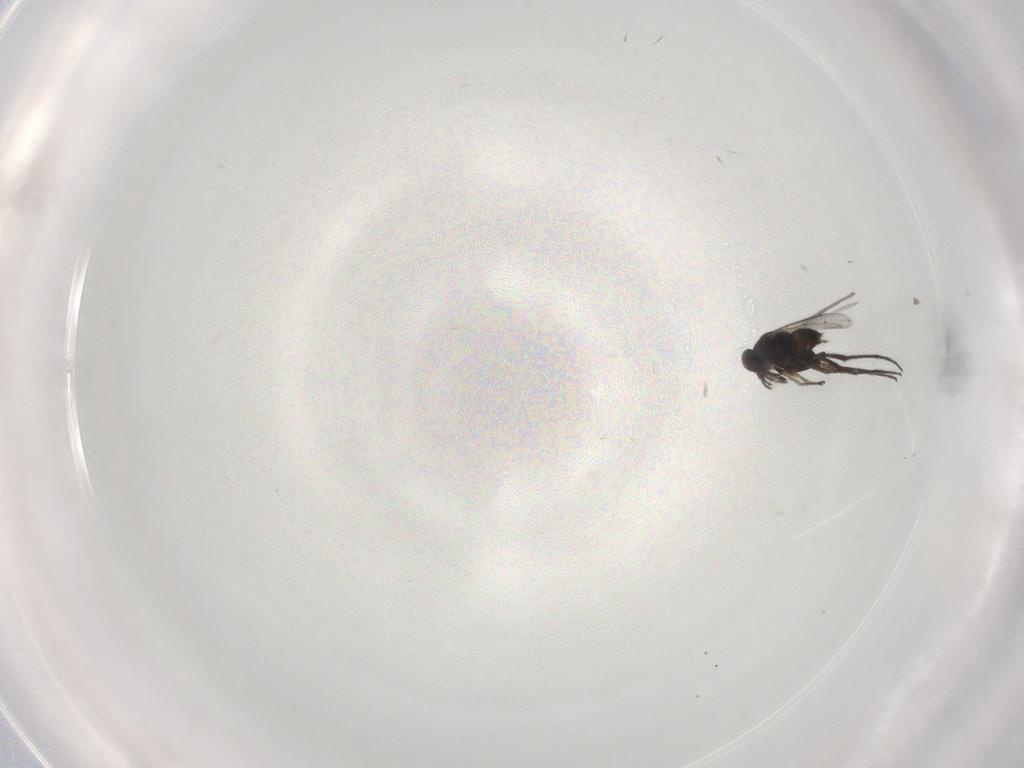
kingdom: Animalia
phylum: Arthropoda
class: Insecta
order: Hymenoptera
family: Eulophidae
